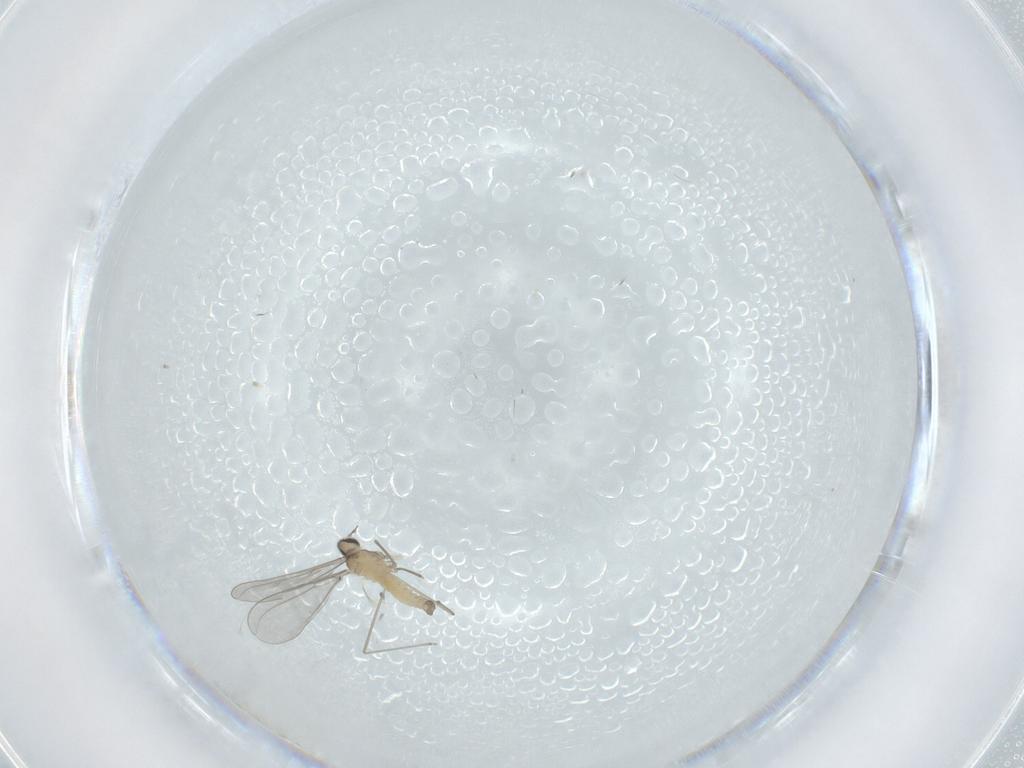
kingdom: Animalia
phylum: Arthropoda
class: Insecta
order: Diptera
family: Cecidomyiidae
